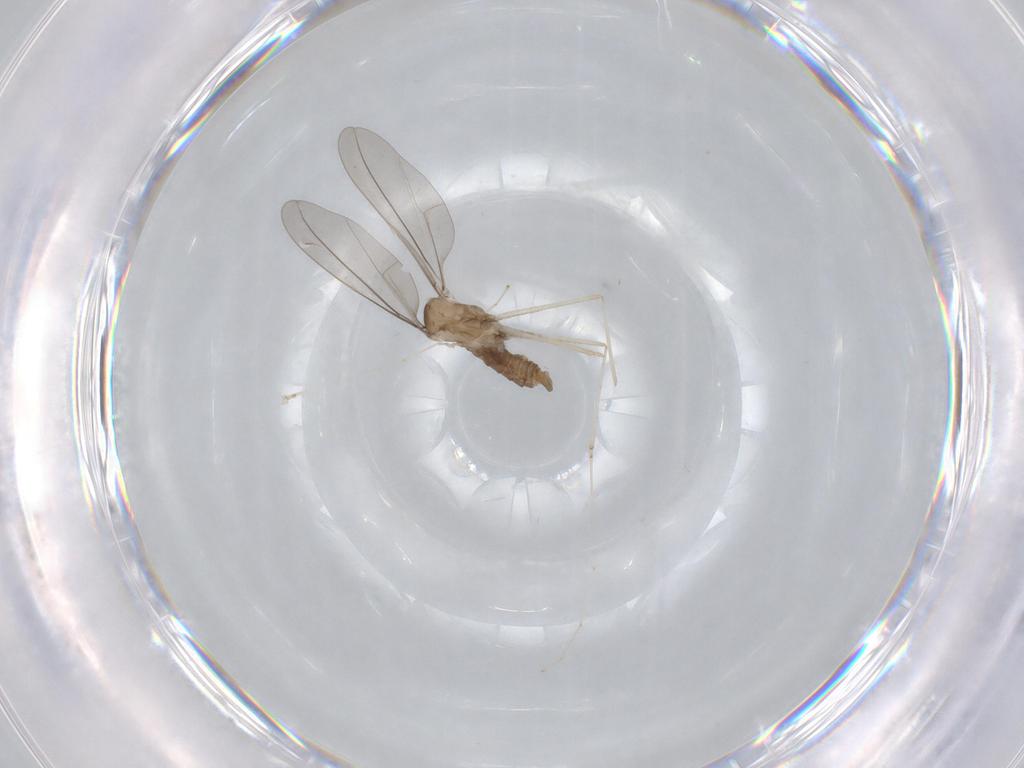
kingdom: Animalia
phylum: Arthropoda
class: Insecta
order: Diptera
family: Cecidomyiidae
